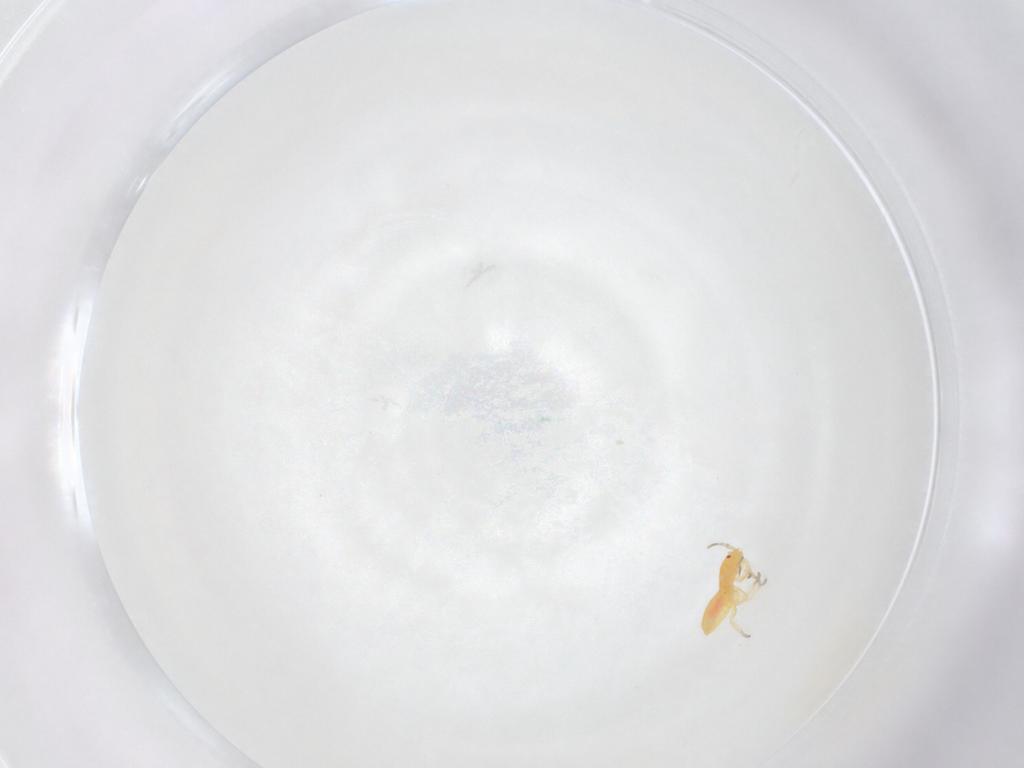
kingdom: Animalia
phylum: Arthropoda
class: Insecta
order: Hemiptera
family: Anthocoridae
